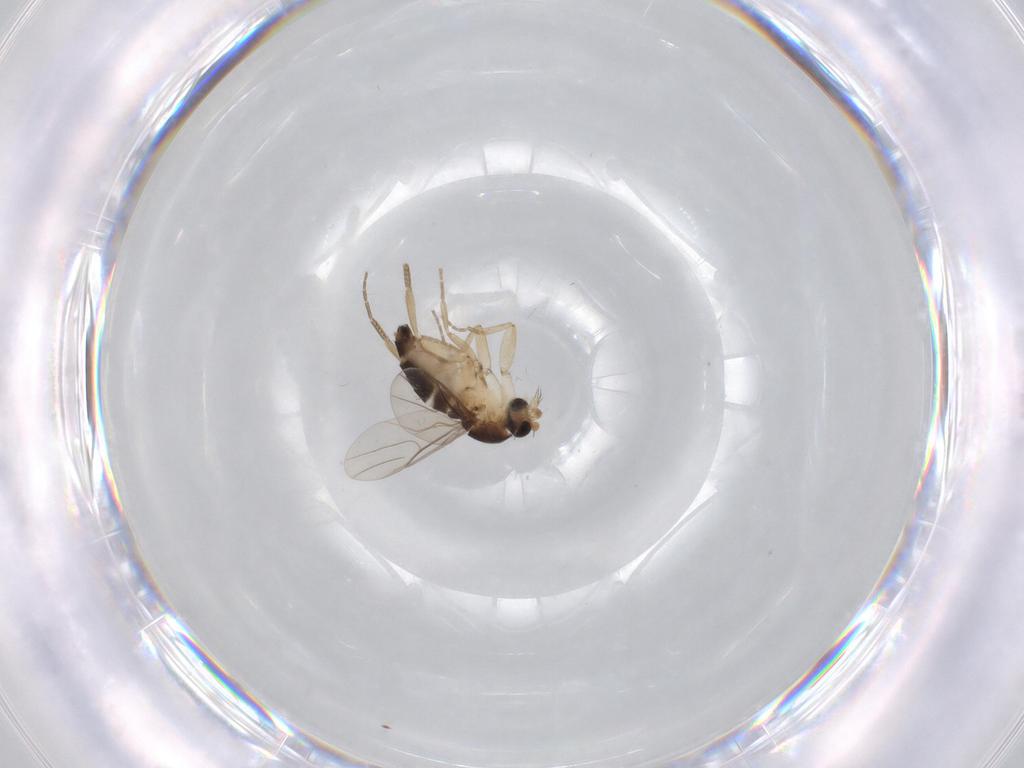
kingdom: Animalia
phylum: Arthropoda
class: Insecta
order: Diptera
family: Phoridae
